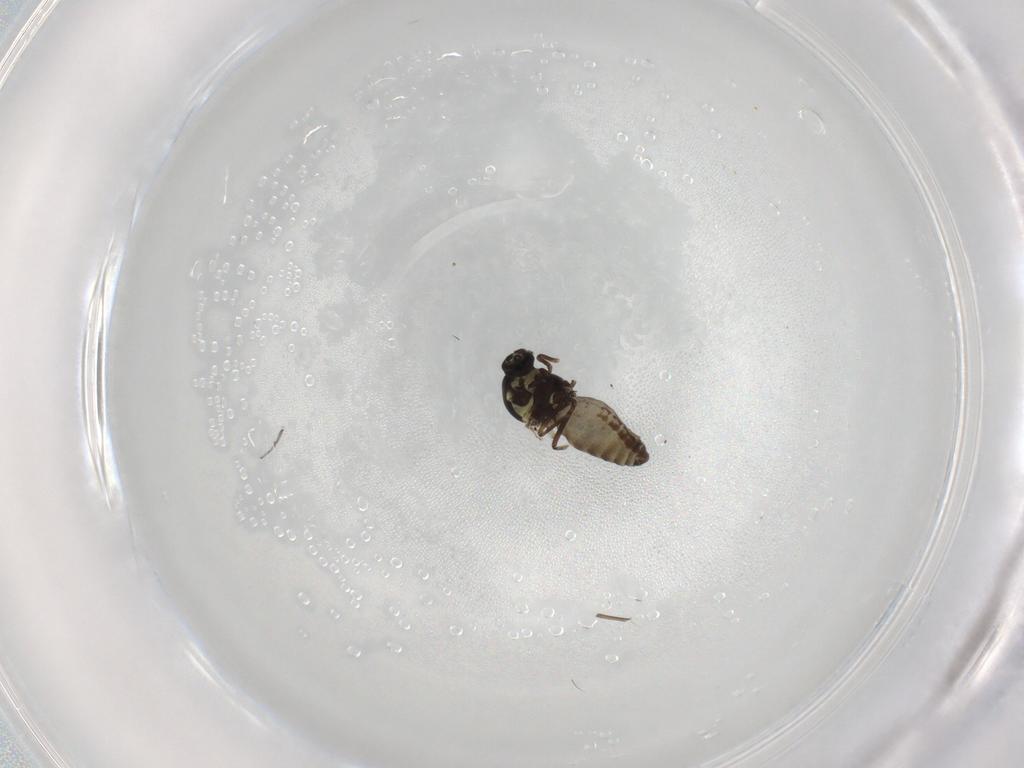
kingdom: Animalia
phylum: Arthropoda
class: Insecta
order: Diptera
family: Ceratopogonidae
